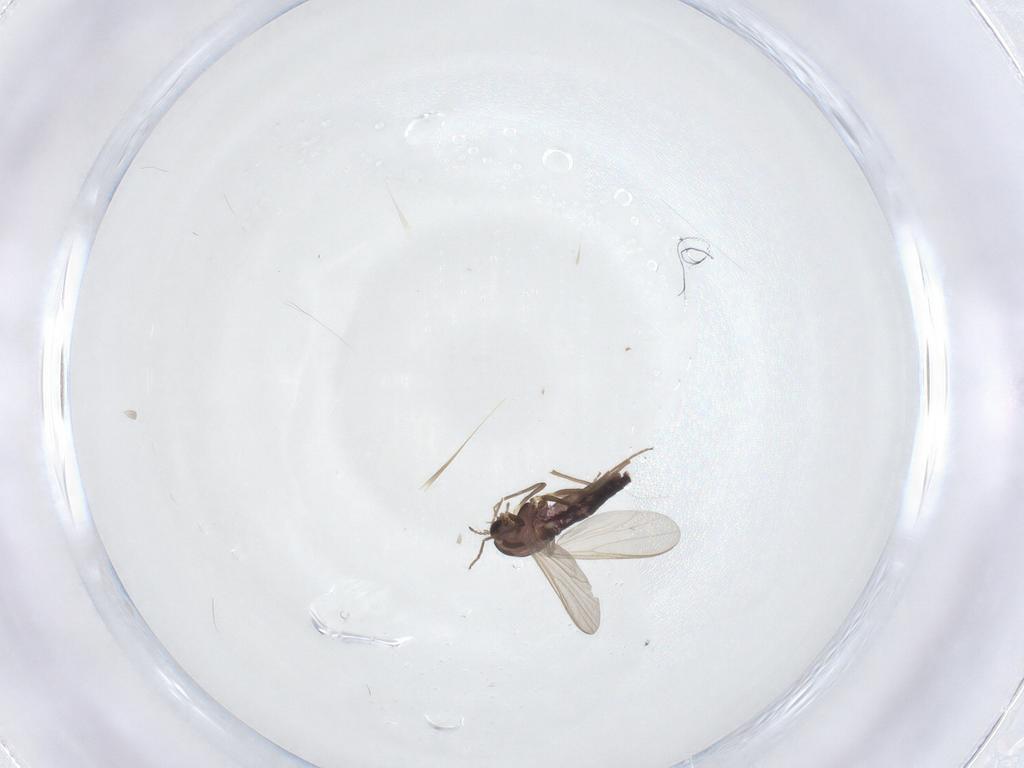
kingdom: Animalia
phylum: Arthropoda
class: Insecta
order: Diptera
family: Chironomidae
